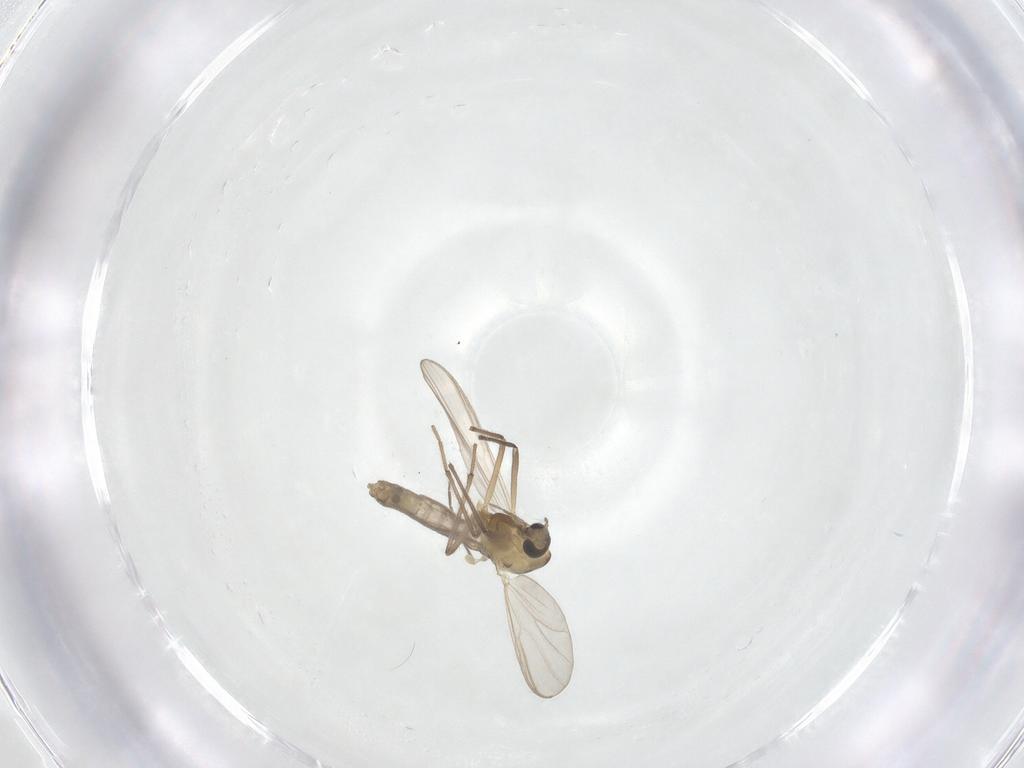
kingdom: Animalia
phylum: Arthropoda
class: Insecta
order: Diptera
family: Chironomidae
